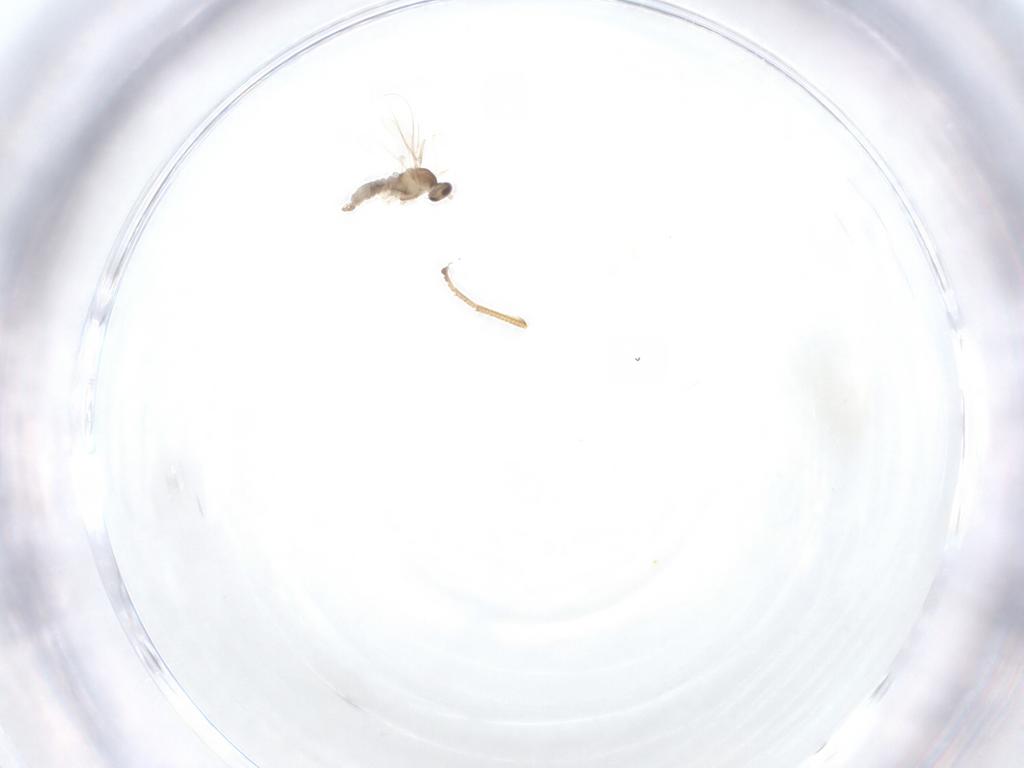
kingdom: Animalia
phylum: Arthropoda
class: Insecta
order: Diptera
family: Cecidomyiidae
